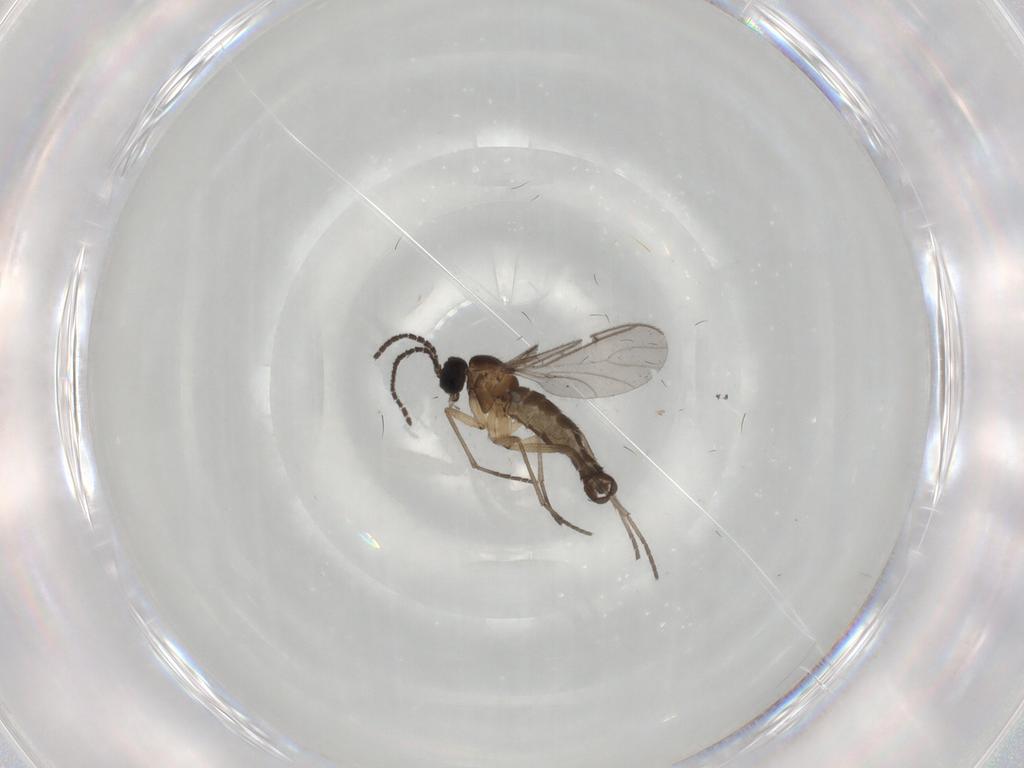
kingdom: Animalia
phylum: Arthropoda
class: Insecta
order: Diptera
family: Sciaridae
